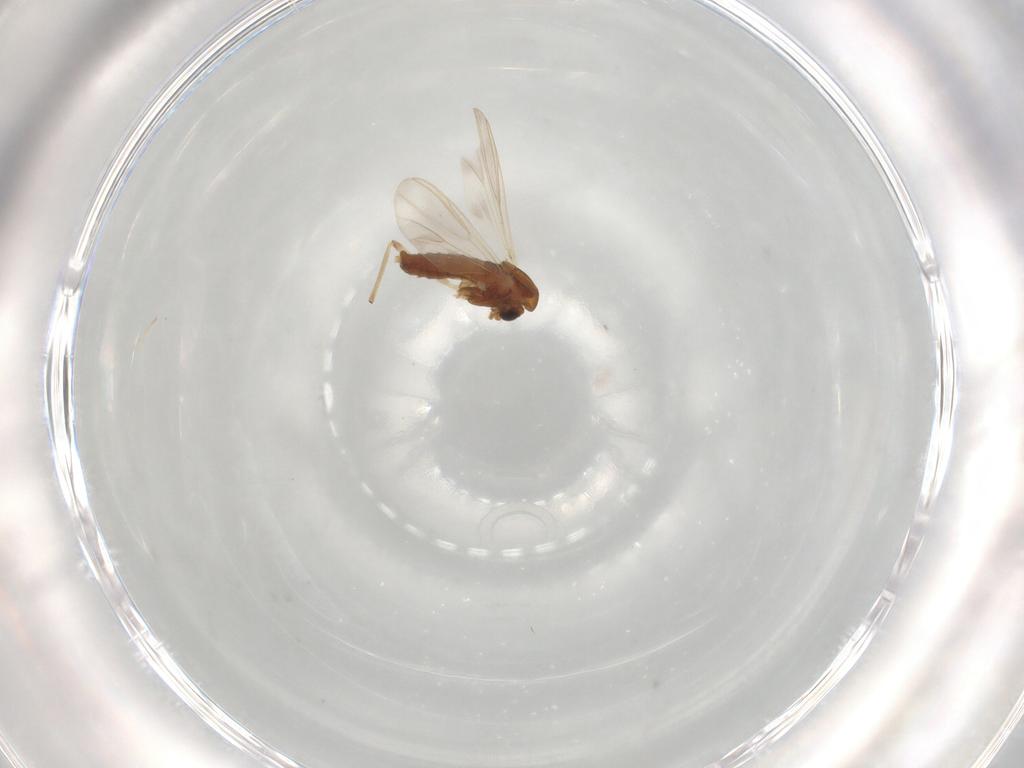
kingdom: Animalia
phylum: Arthropoda
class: Insecta
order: Diptera
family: Chironomidae
